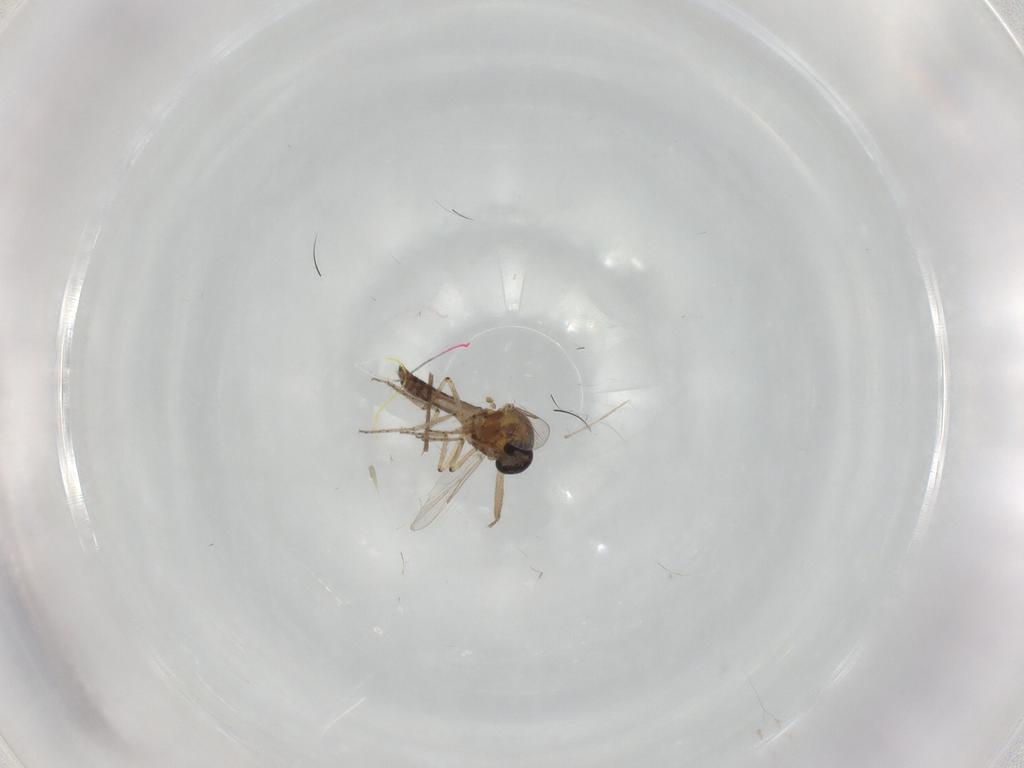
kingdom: Animalia
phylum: Arthropoda
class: Insecta
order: Diptera
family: Ceratopogonidae
